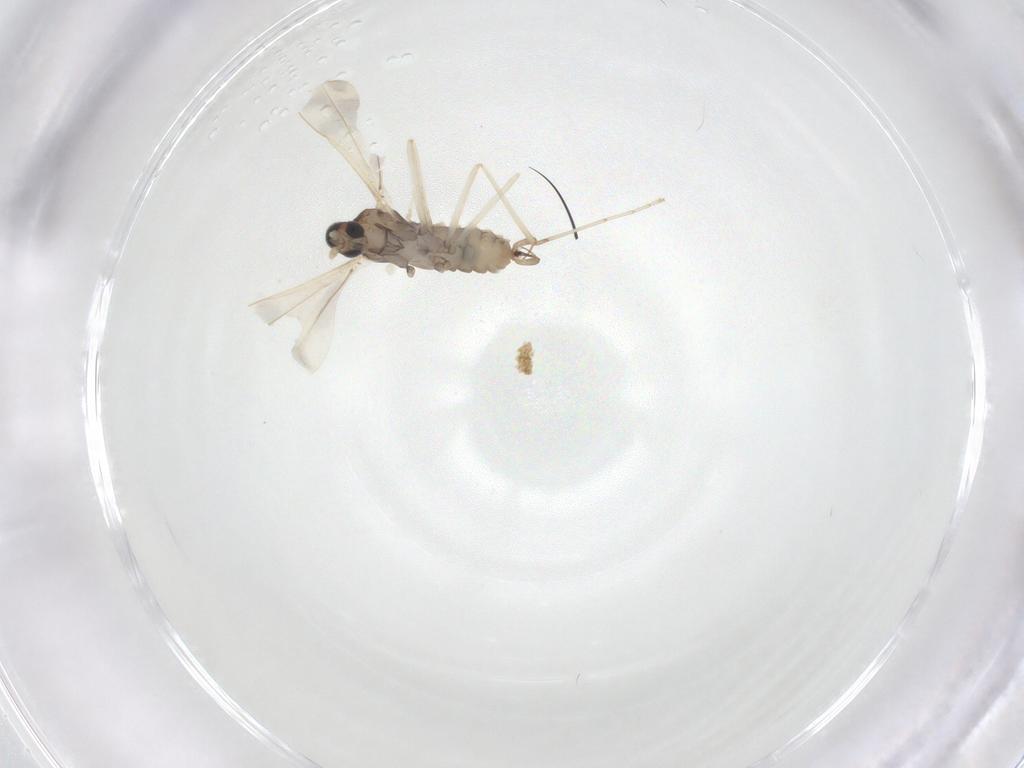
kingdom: Animalia
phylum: Arthropoda
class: Insecta
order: Diptera
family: Cecidomyiidae
